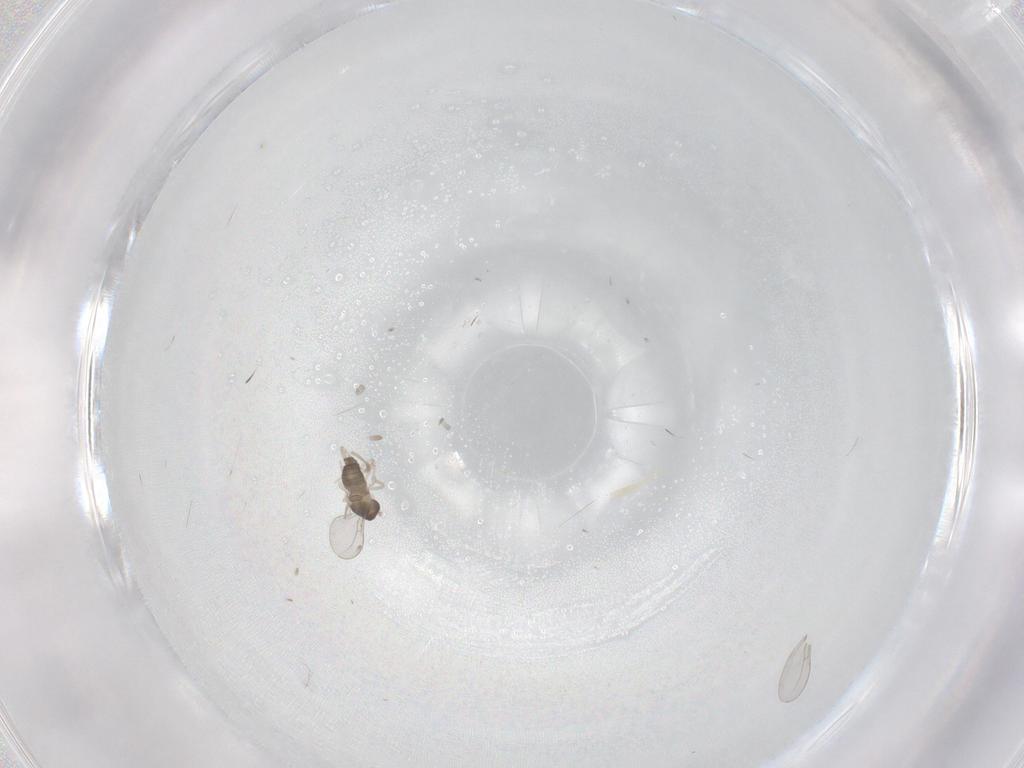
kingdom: Animalia
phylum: Arthropoda
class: Insecta
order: Diptera
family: Cecidomyiidae
